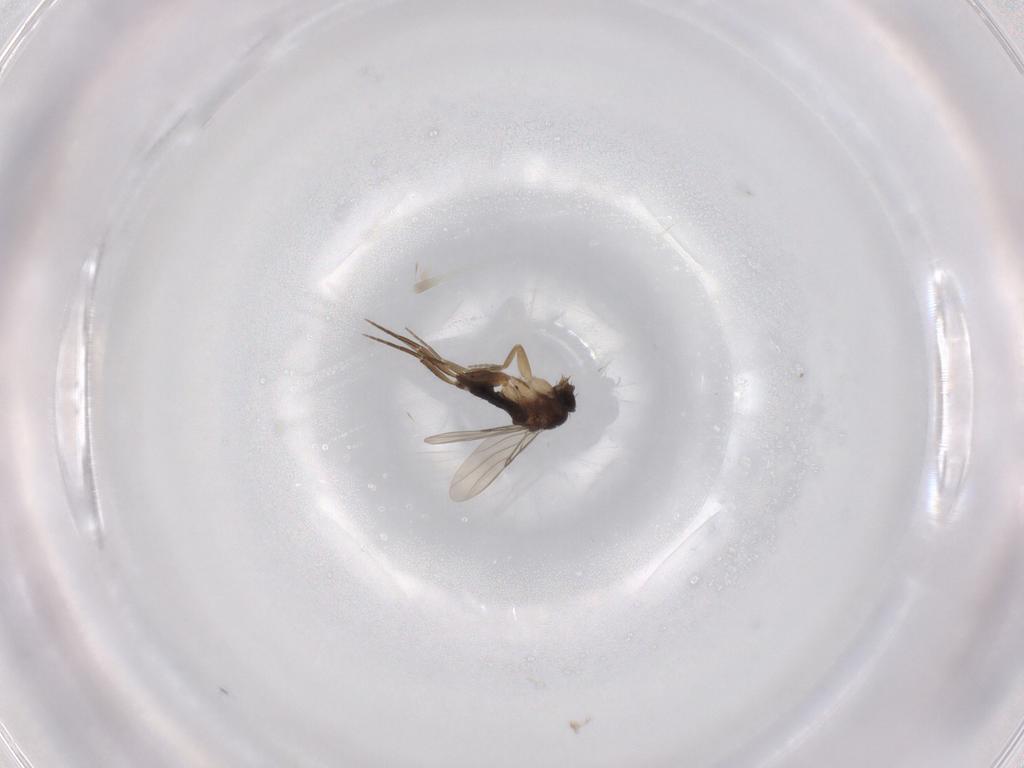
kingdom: Animalia
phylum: Arthropoda
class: Insecta
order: Diptera
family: Phoridae
